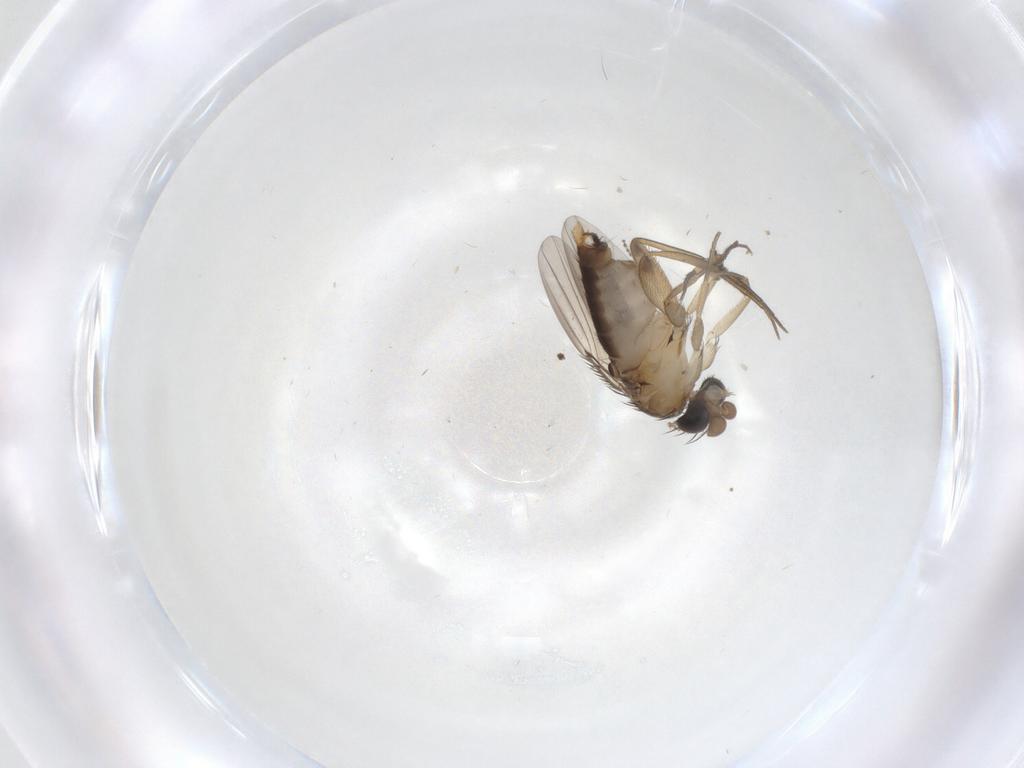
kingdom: Animalia
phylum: Arthropoda
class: Insecta
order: Diptera
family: Phoridae
